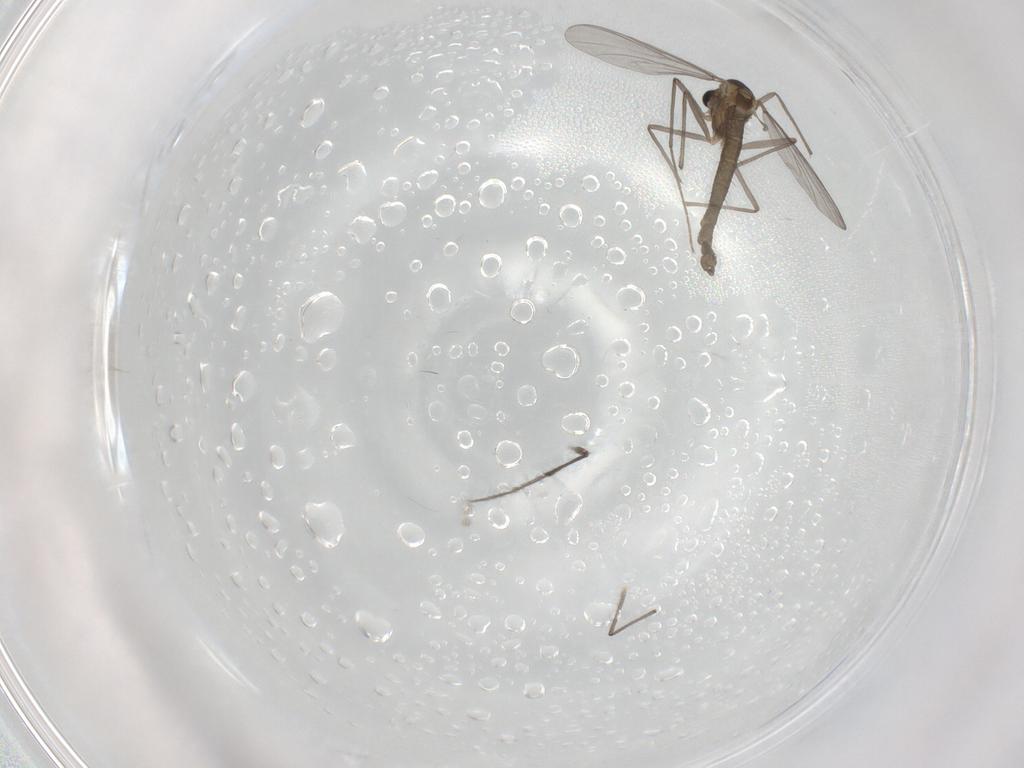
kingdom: Animalia
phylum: Arthropoda
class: Insecta
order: Diptera
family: Chironomidae
